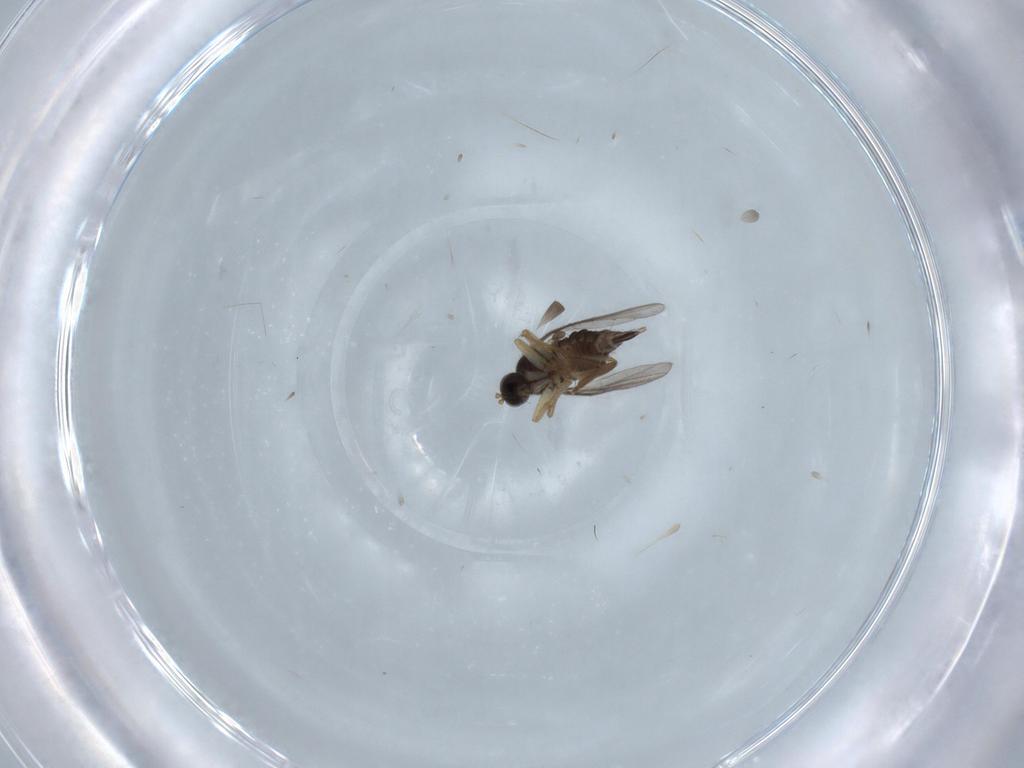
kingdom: Animalia
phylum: Arthropoda
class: Insecta
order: Diptera
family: Hybotidae
